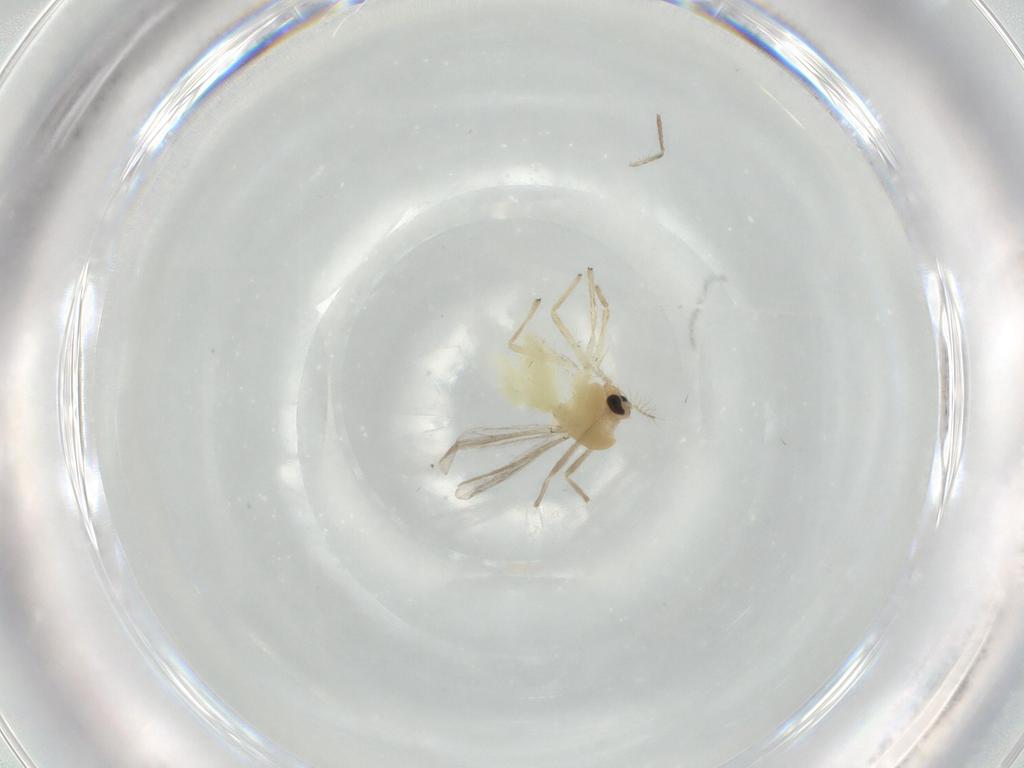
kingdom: Animalia
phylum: Arthropoda
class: Insecta
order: Diptera
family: Chironomidae
